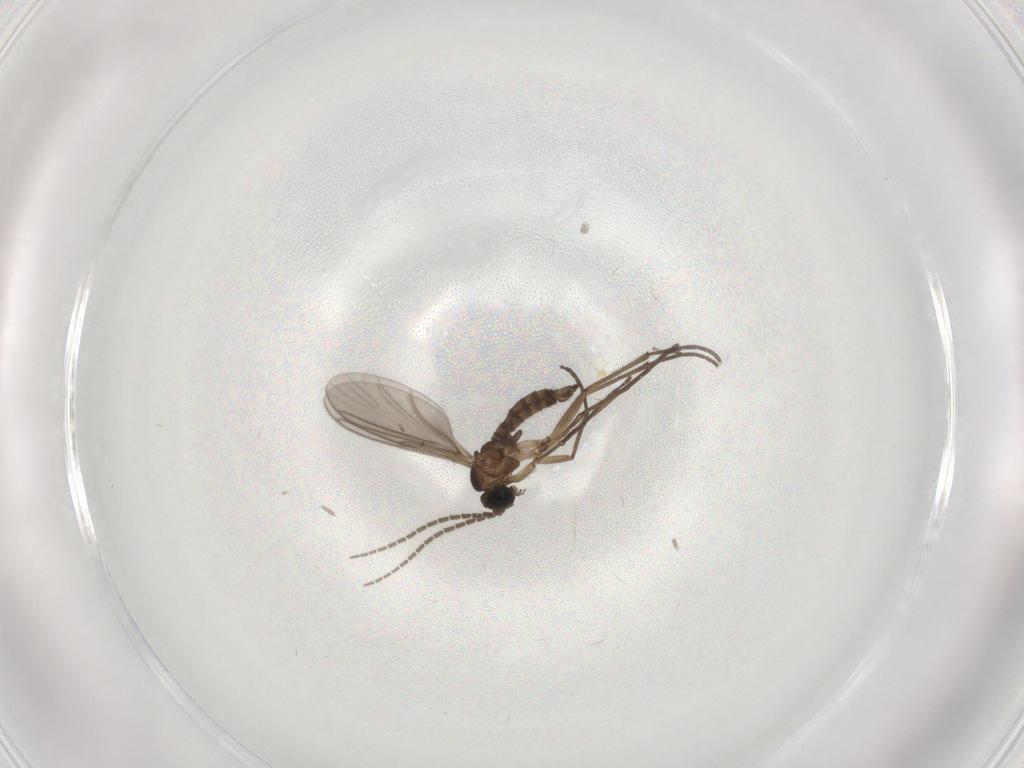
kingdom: Animalia
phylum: Arthropoda
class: Insecta
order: Diptera
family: Sciaridae
